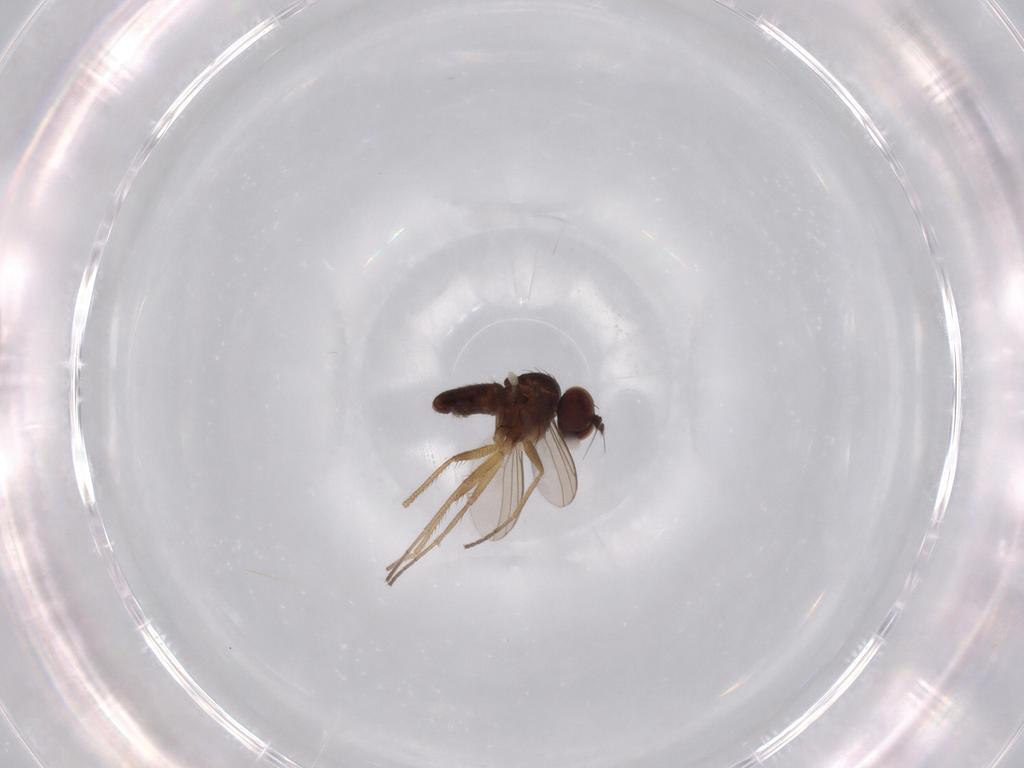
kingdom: Animalia
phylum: Arthropoda
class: Insecta
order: Diptera
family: Dolichopodidae
